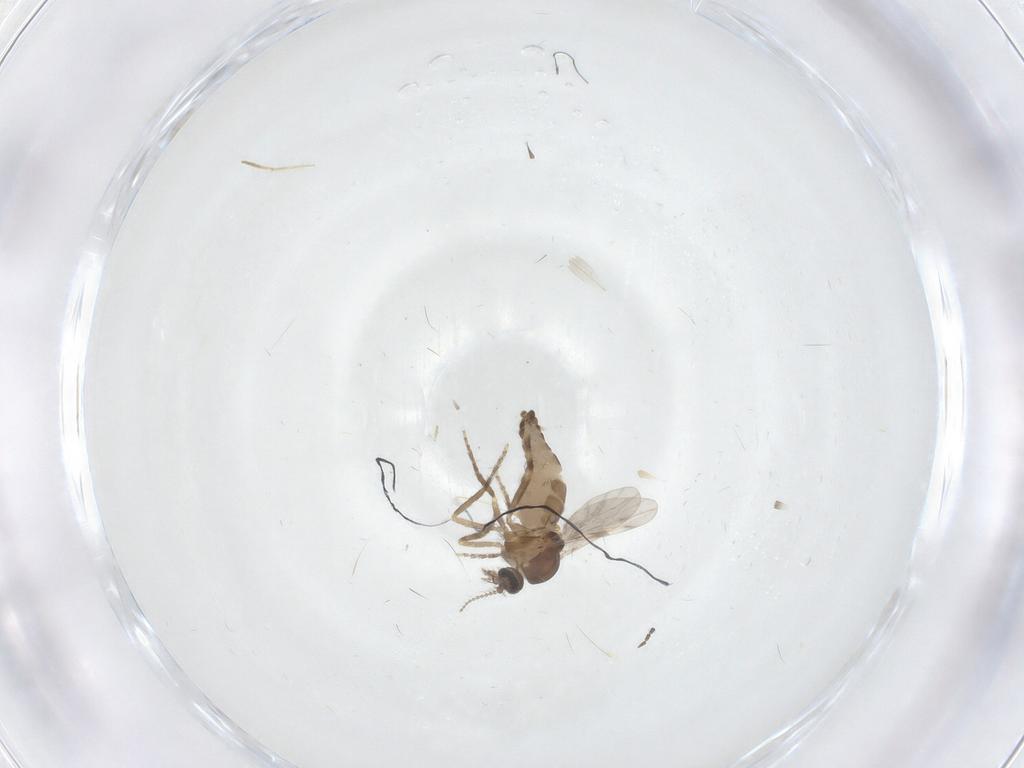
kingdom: Animalia
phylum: Arthropoda
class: Insecta
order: Diptera
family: Ceratopogonidae
